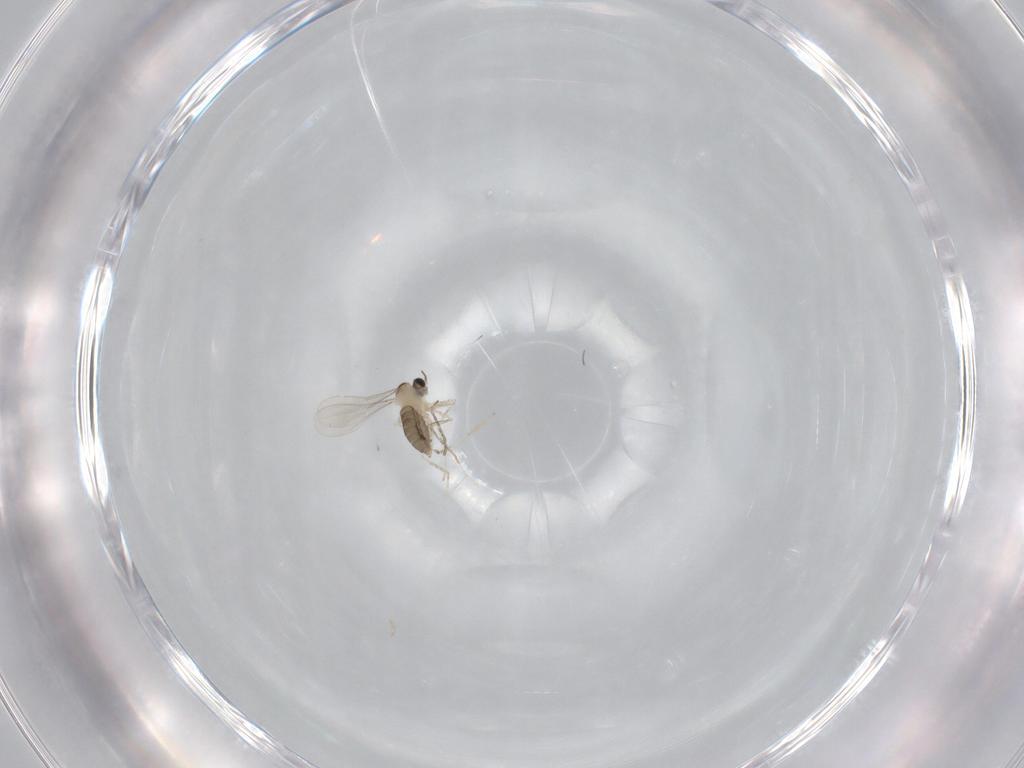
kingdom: Animalia
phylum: Arthropoda
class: Insecta
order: Diptera
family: Cecidomyiidae
